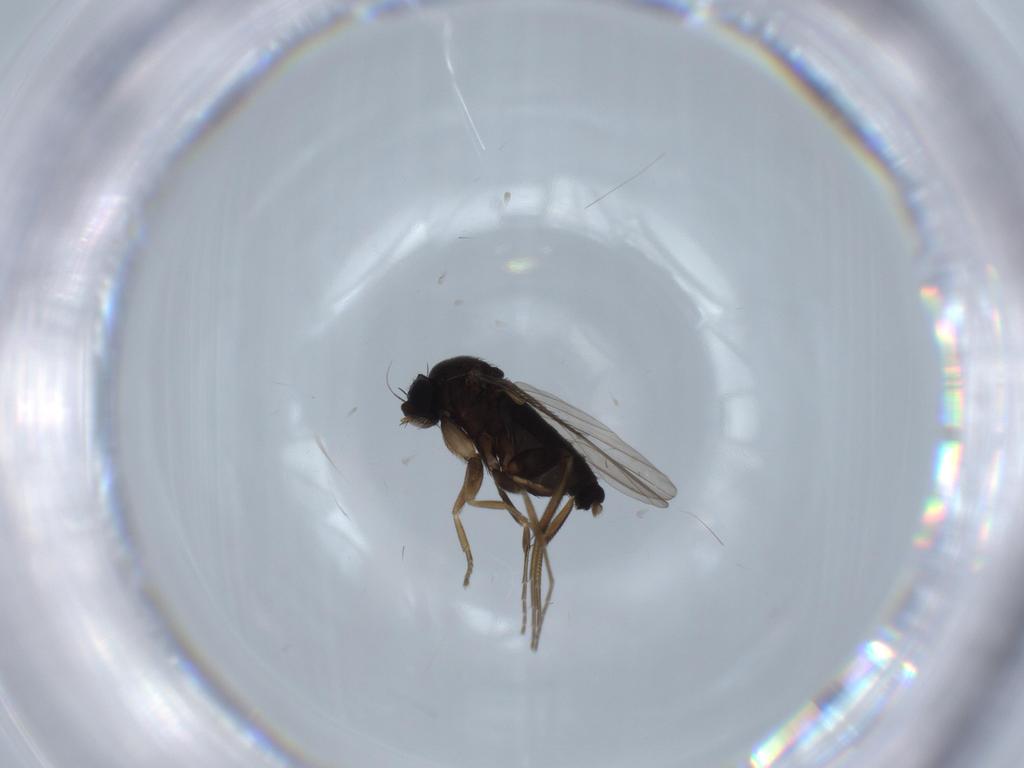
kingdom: Animalia
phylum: Arthropoda
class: Insecta
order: Diptera
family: Phoridae
